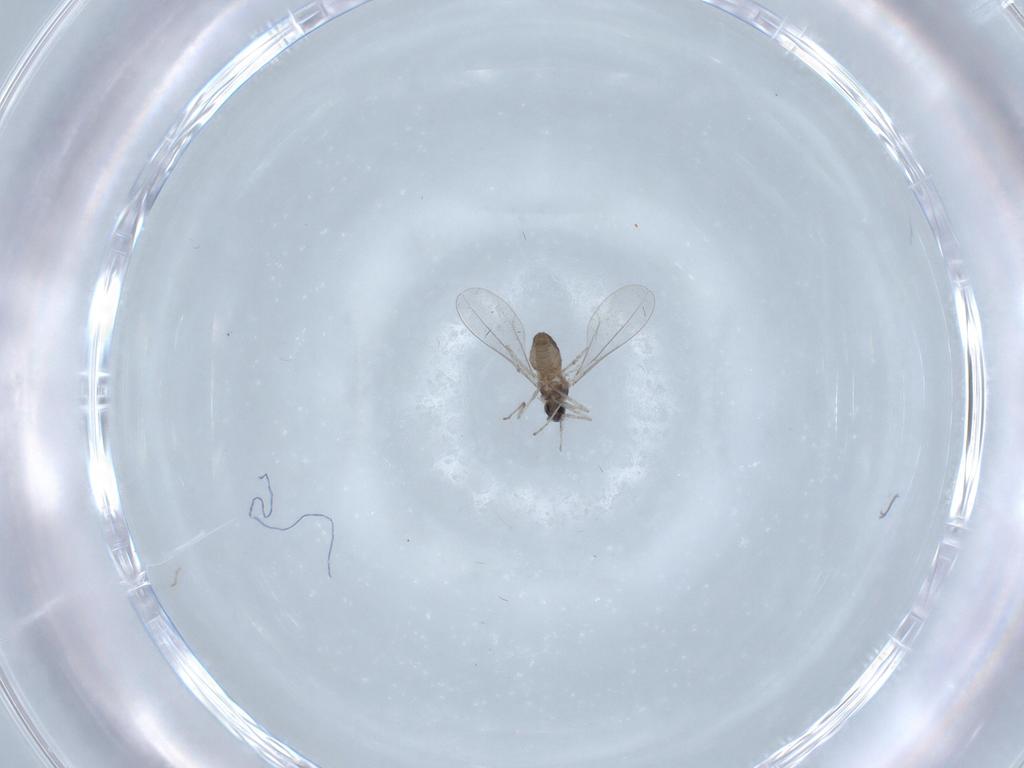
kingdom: Animalia
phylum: Arthropoda
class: Insecta
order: Diptera
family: Cecidomyiidae
